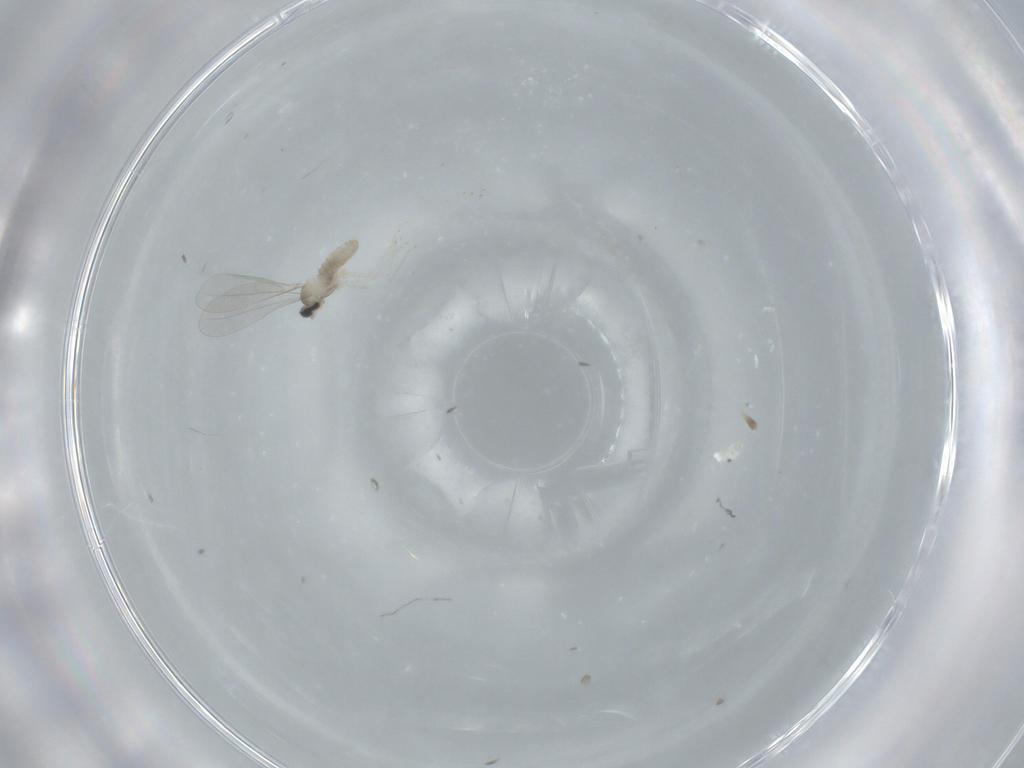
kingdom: Animalia
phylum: Arthropoda
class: Insecta
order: Diptera
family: Cecidomyiidae
